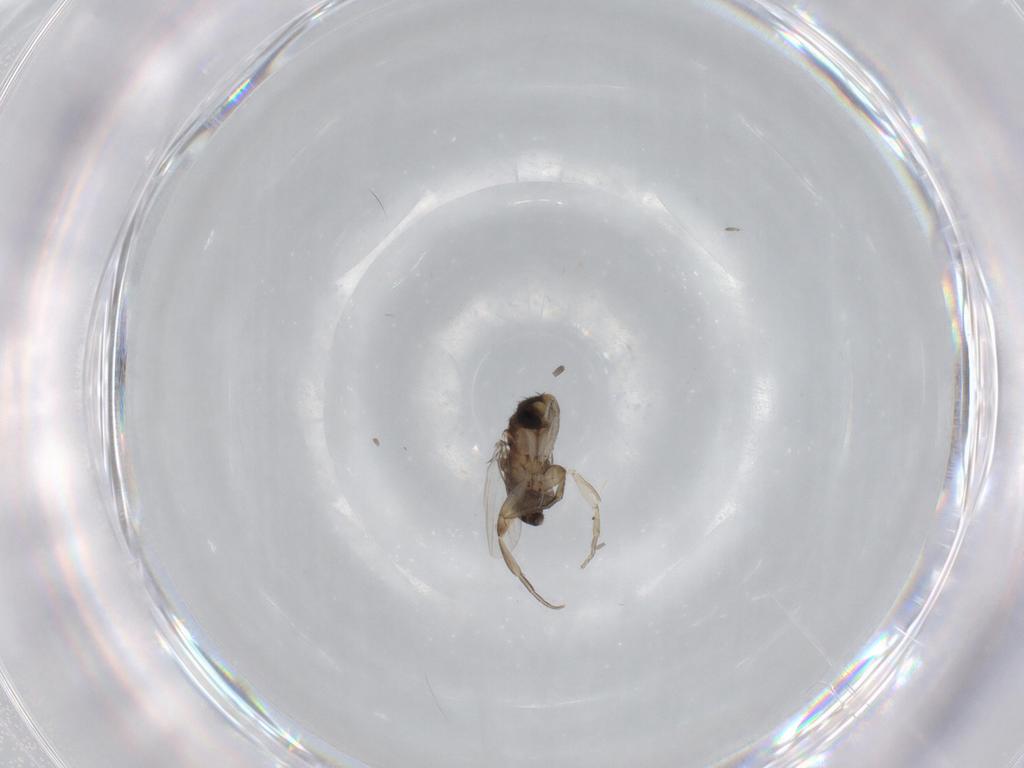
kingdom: Animalia
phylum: Arthropoda
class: Insecta
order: Diptera
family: Phoridae
